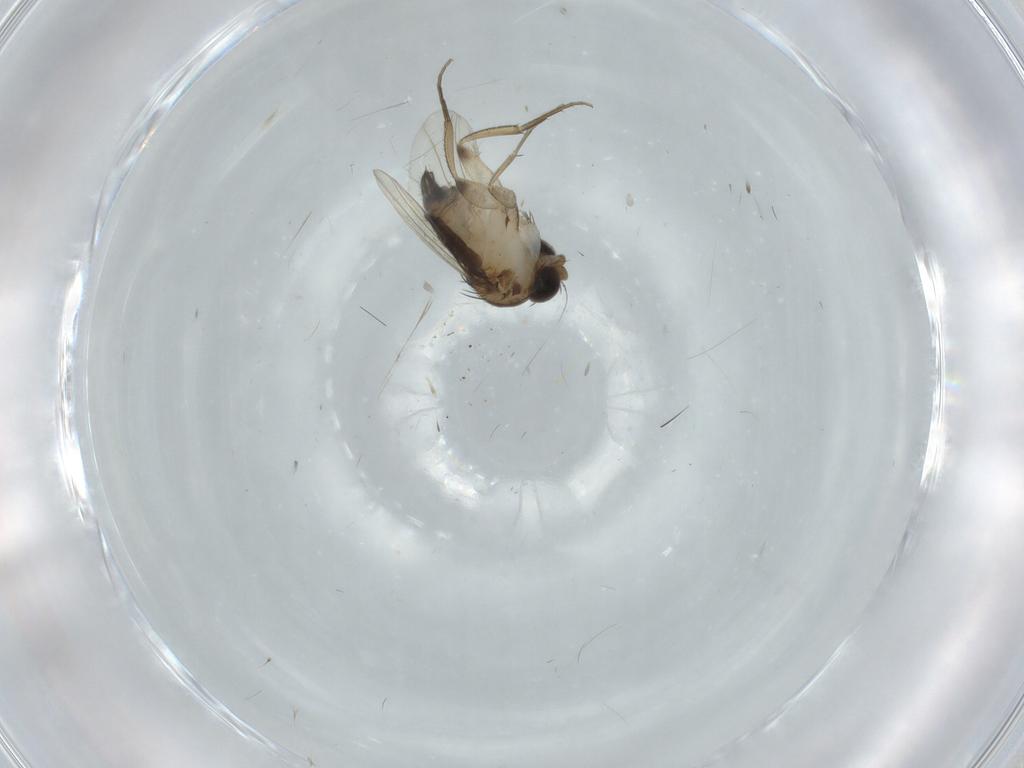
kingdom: Animalia
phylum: Arthropoda
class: Insecta
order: Diptera
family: Phoridae
